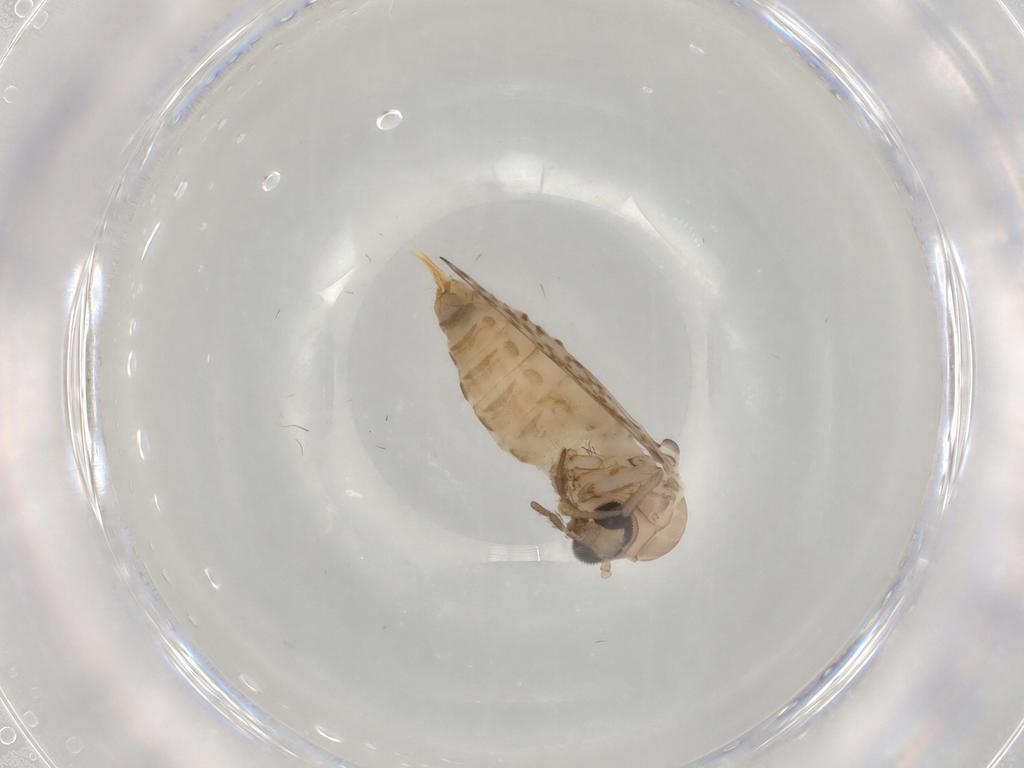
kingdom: Animalia
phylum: Arthropoda
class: Insecta
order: Diptera
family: Psychodidae
